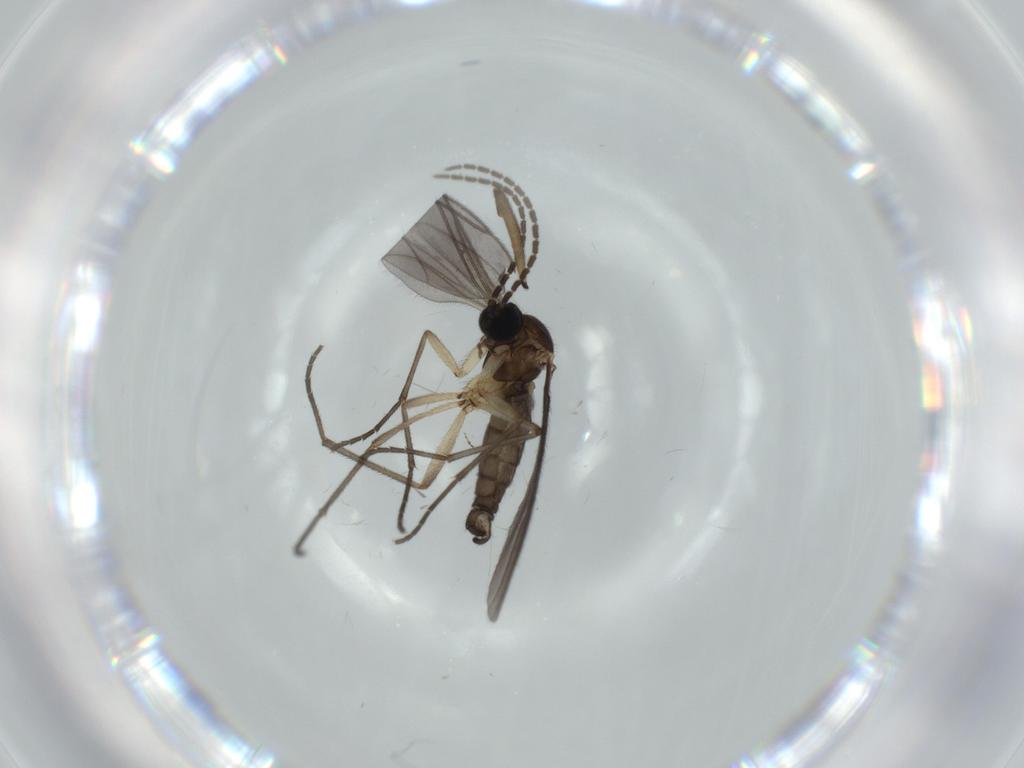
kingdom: Animalia
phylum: Arthropoda
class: Insecta
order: Diptera
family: Sciaridae
